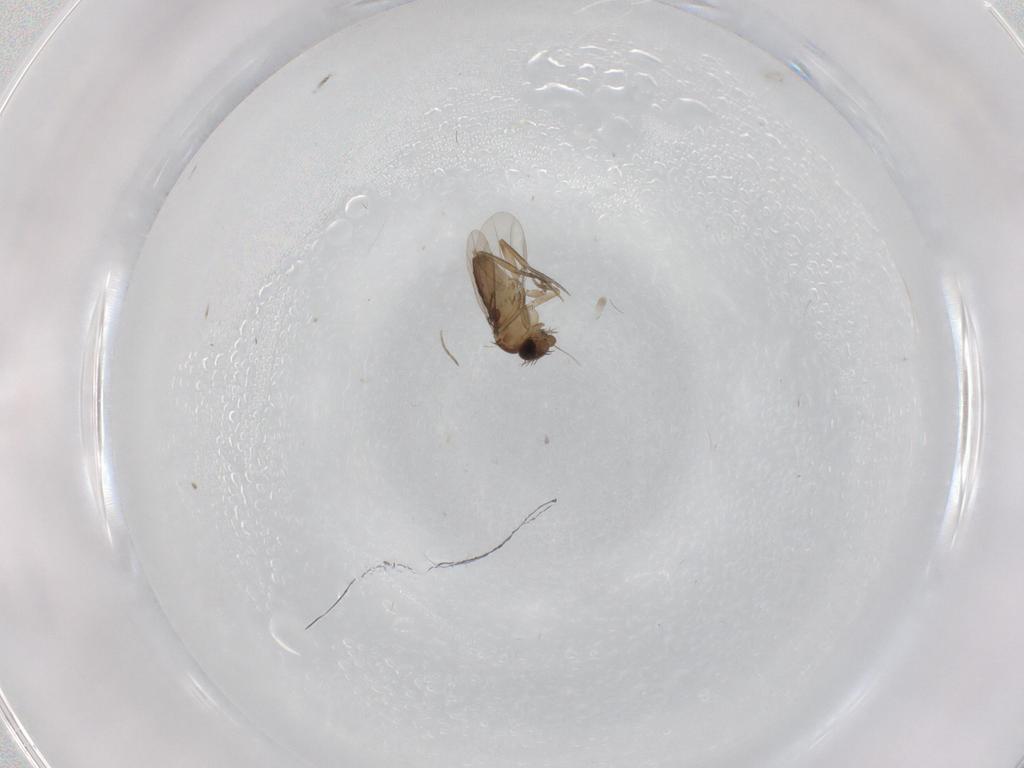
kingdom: Animalia
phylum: Arthropoda
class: Insecta
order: Diptera
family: Phoridae
